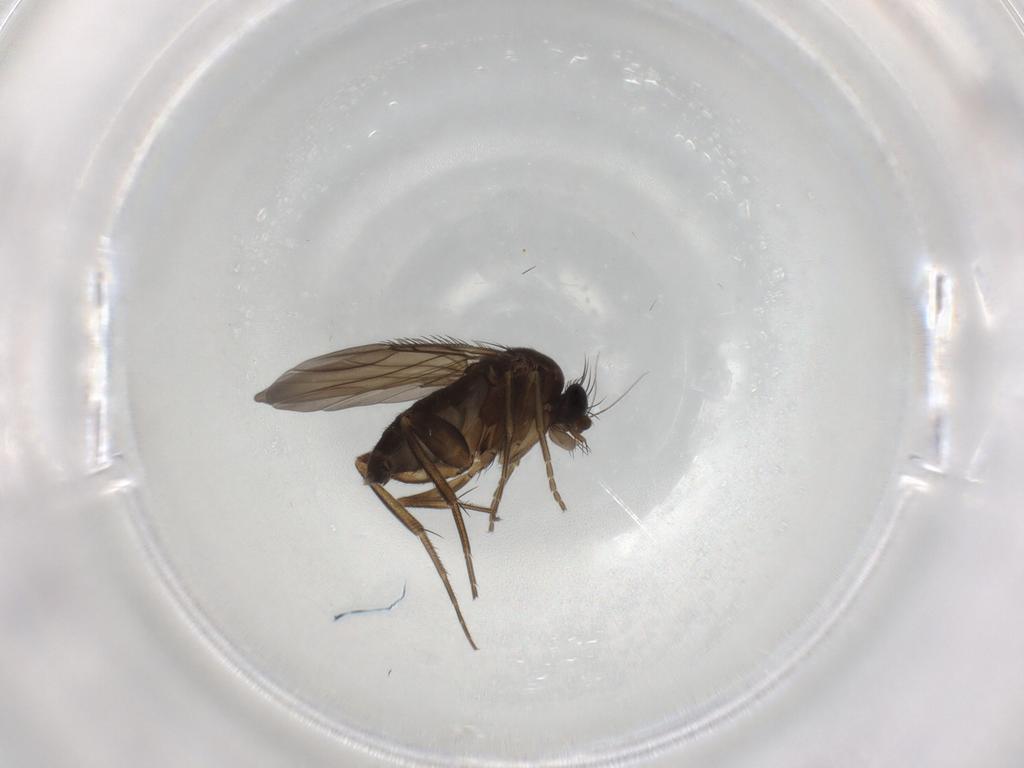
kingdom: Animalia
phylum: Arthropoda
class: Insecta
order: Diptera
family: Phoridae
